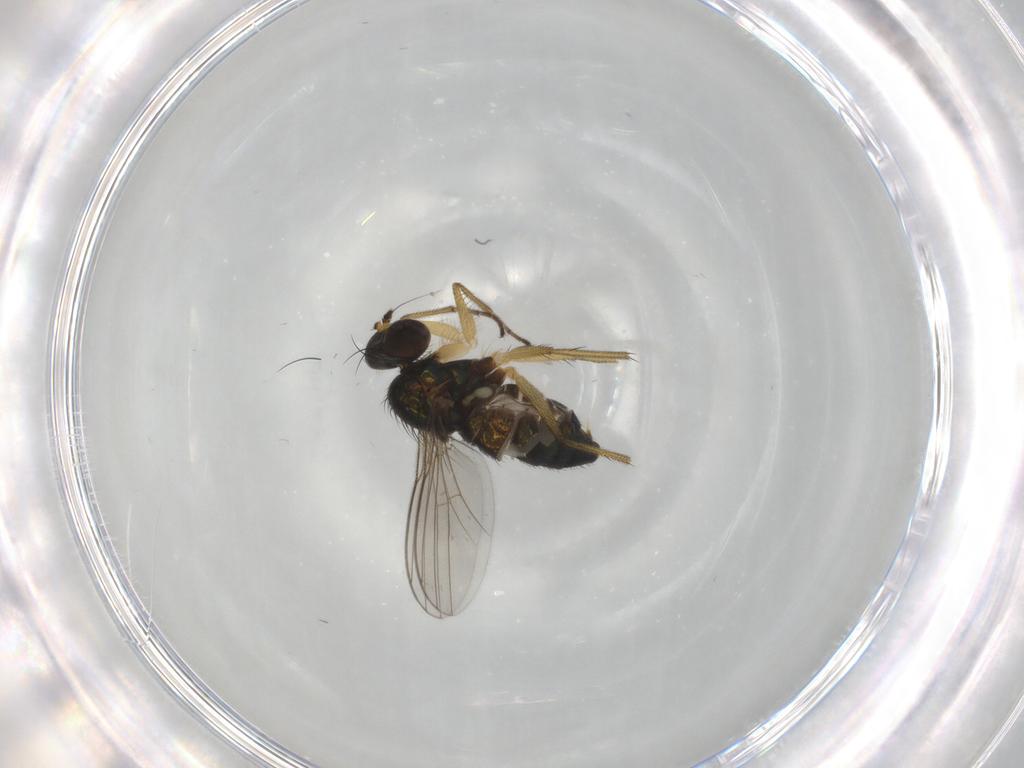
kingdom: Animalia
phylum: Arthropoda
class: Insecta
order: Diptera
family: Dolichopodidae
